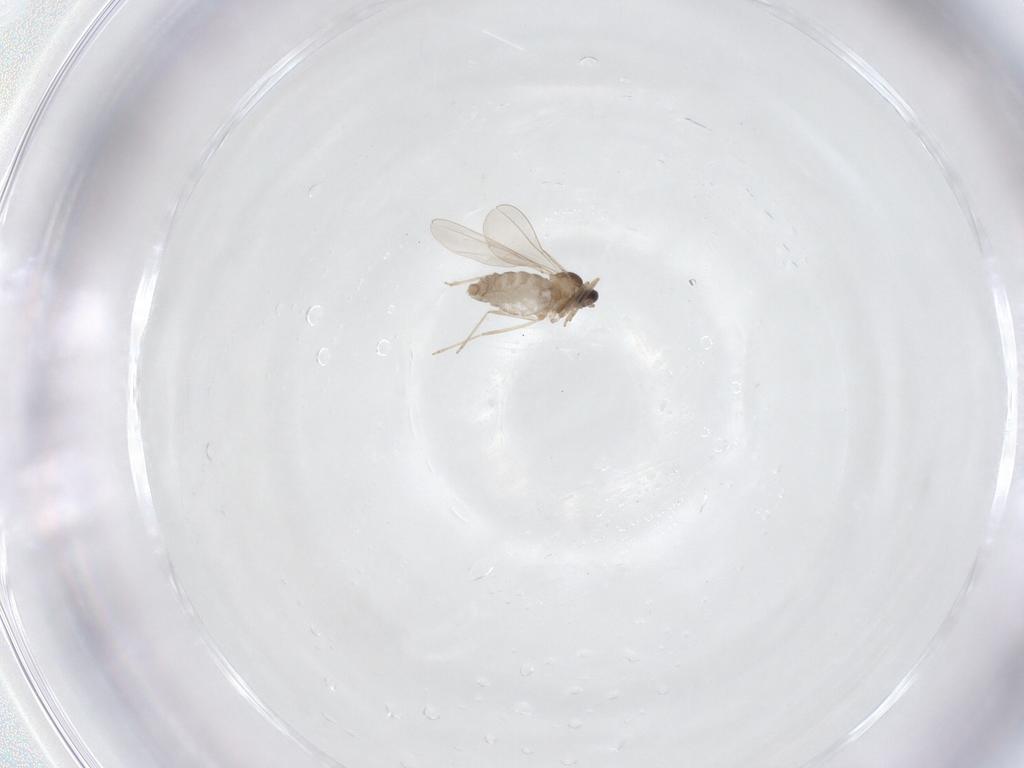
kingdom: Animalia
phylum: Arthropoda
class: Insecta
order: Diptera
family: Cecidomyiidae
